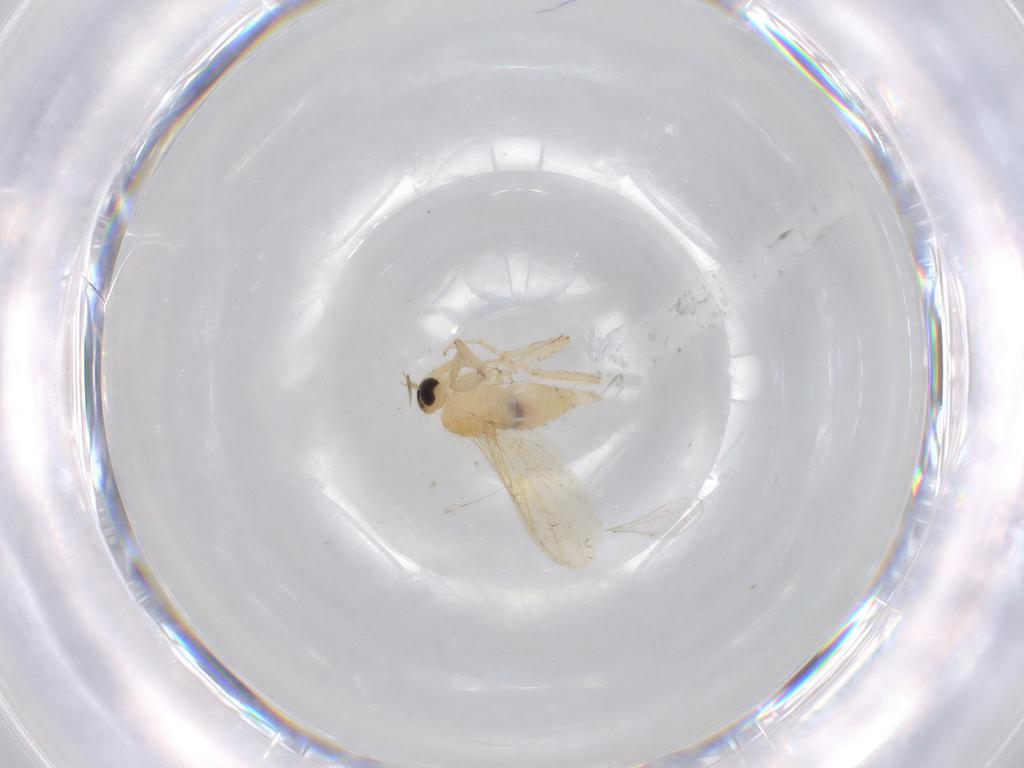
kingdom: Animalia
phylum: Arthropoda
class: Insecta
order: Diptera
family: Hybotidae
